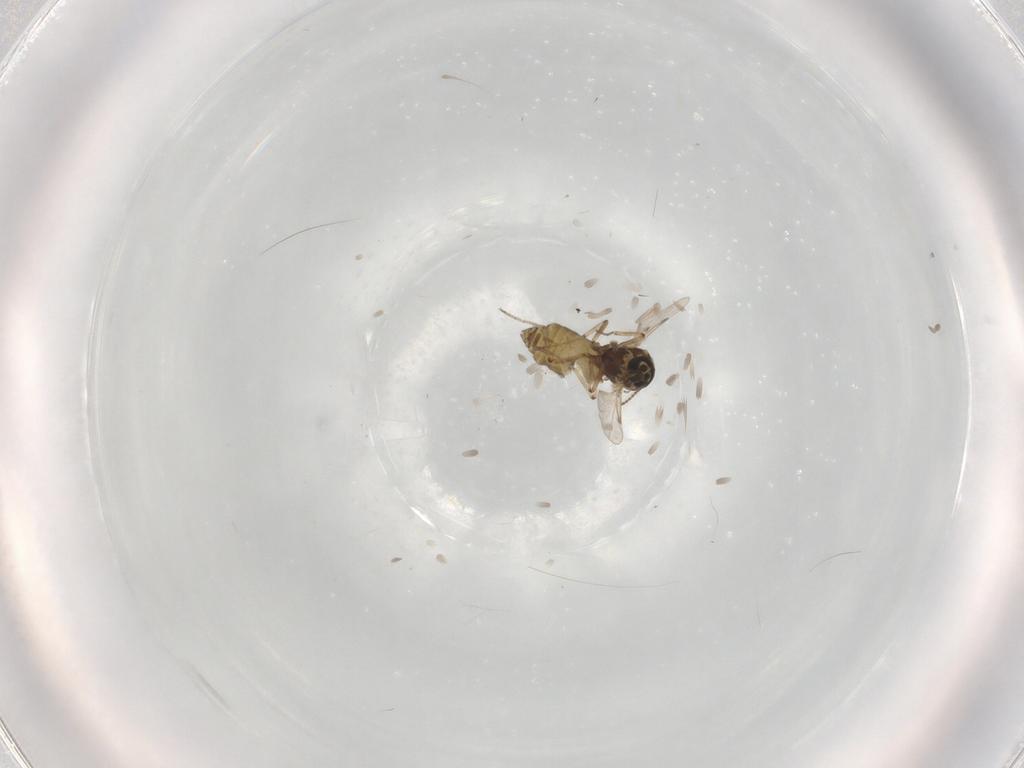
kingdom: Animalia
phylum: Arthropoda
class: Insecta
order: Diptera
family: Ceratopogonidae
